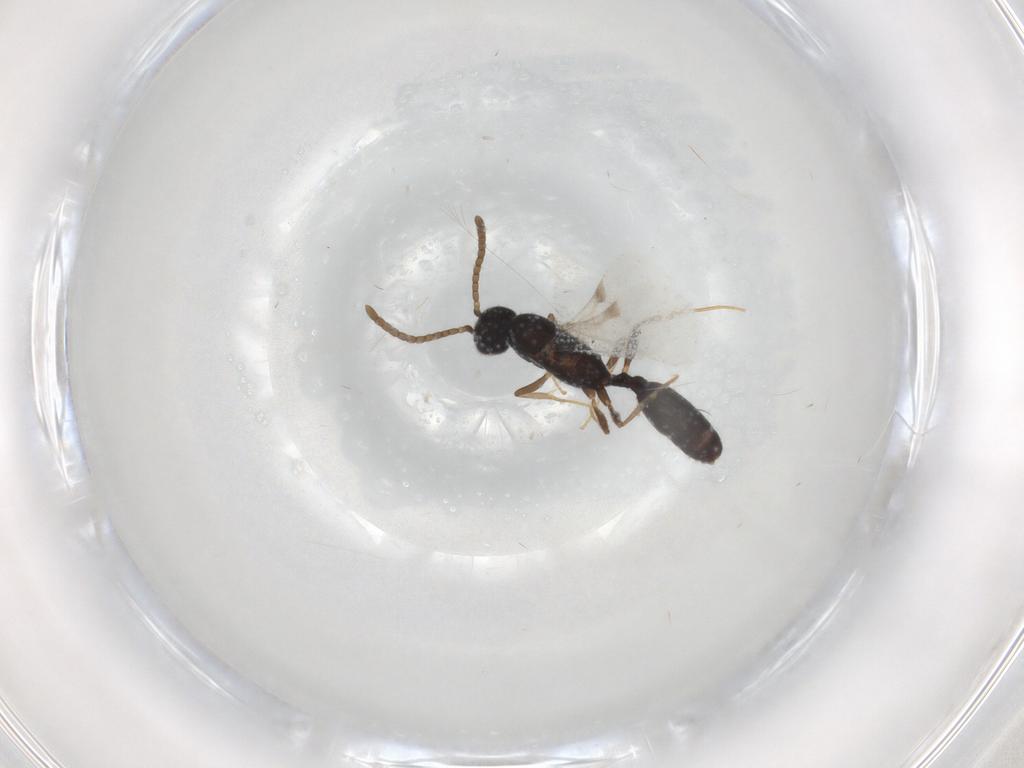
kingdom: Animalia
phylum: Arthropoda
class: Insecta
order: Hymenoptera
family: Formicidae
